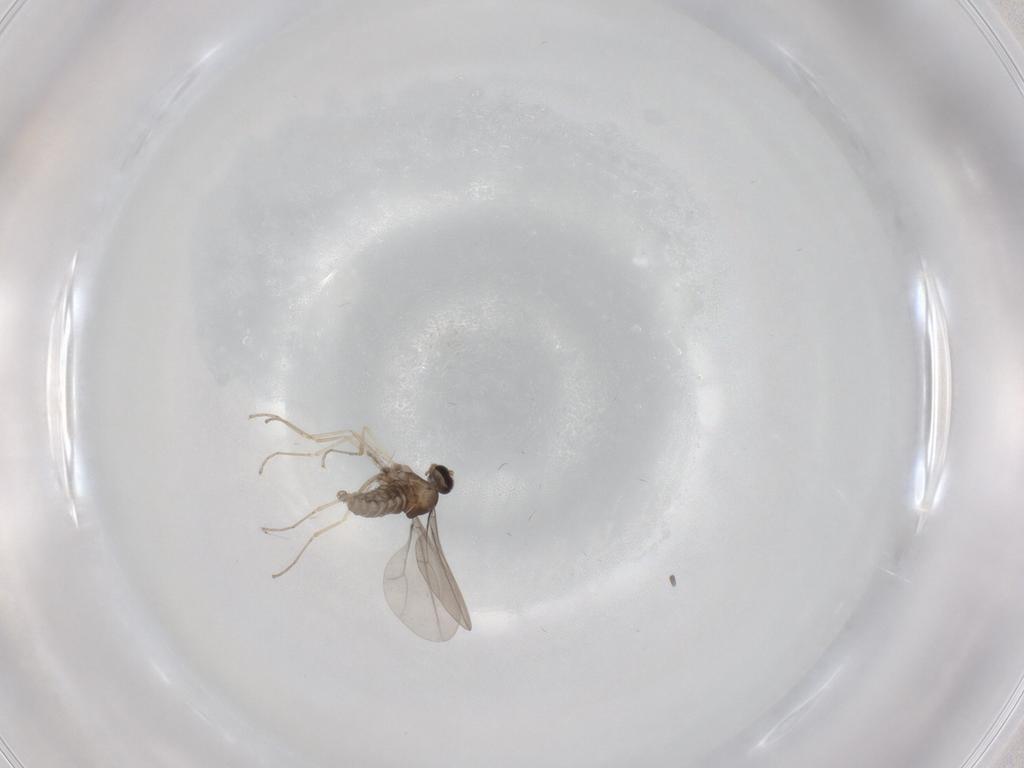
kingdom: Animalia
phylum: Arthropoda
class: Insecta
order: Diptera
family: Cecidomyiidae
